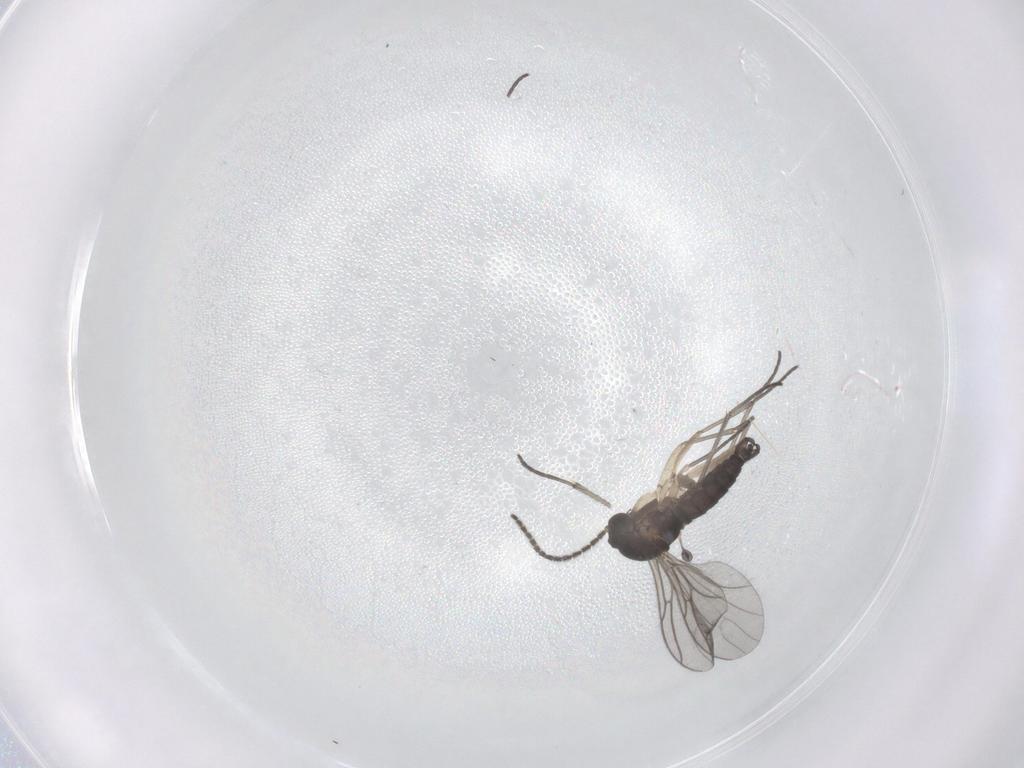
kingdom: Animalia
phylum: Arthropoda
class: Insecta
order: Diptera
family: Sciaridae
